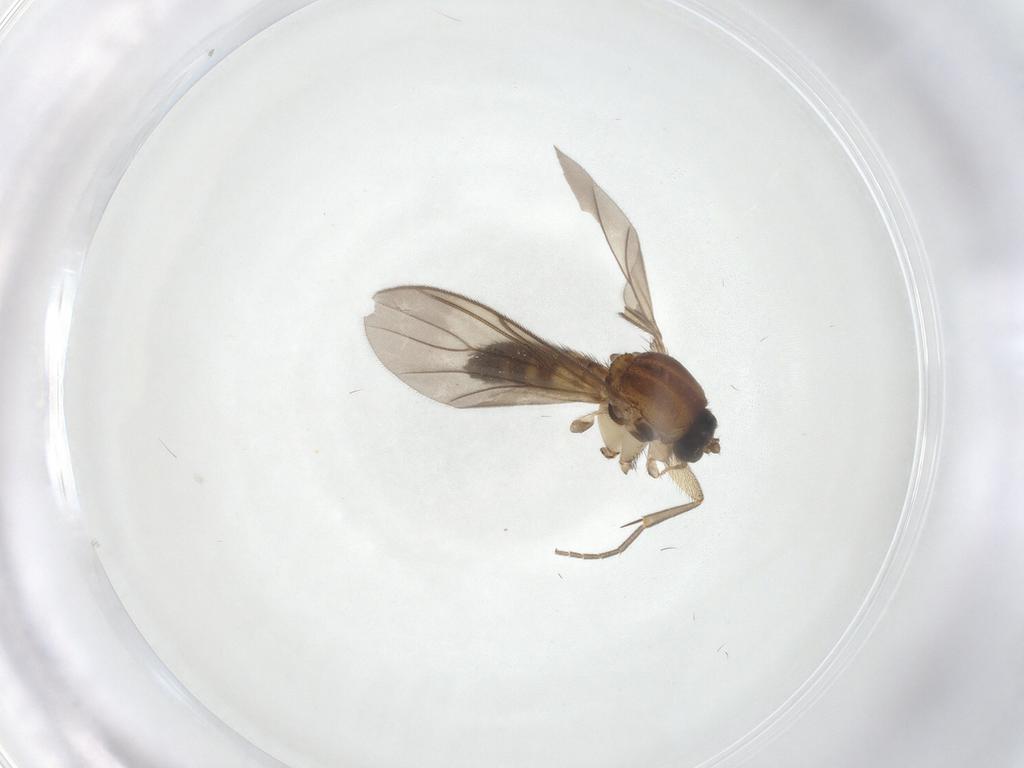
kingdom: Animalia
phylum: Arthropoda
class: Insecta
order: Diptera
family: Mycetophilidae
